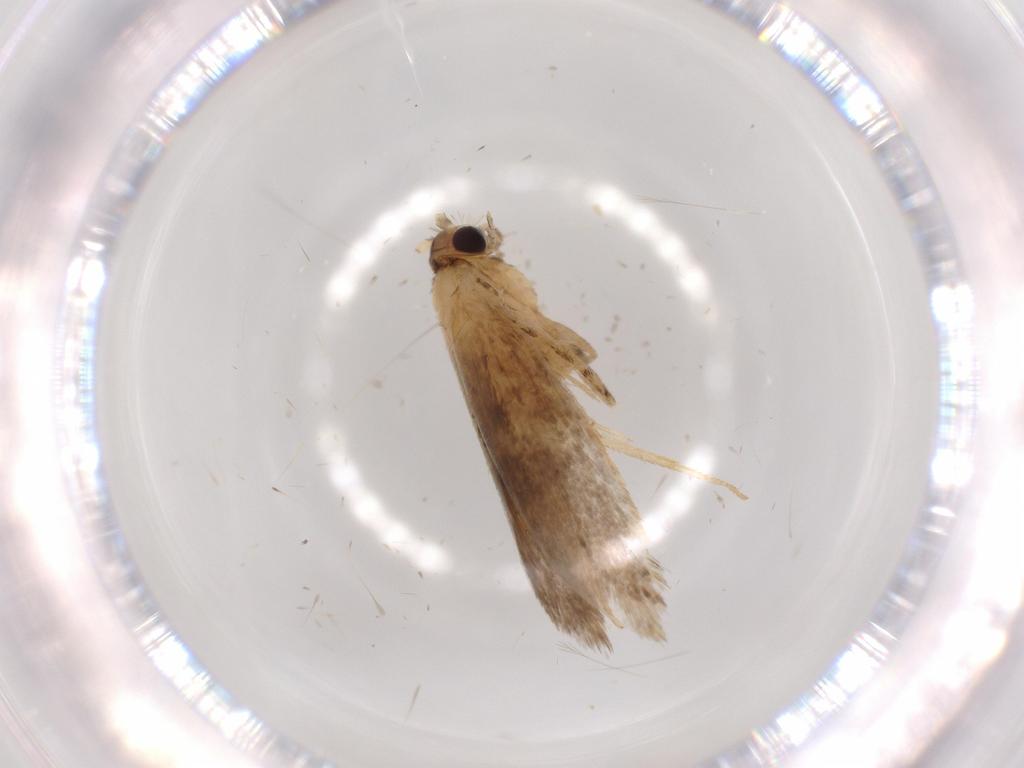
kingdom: Animalia
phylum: Arthropoda
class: Insecta
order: Lepidoptera
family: Tineidae
